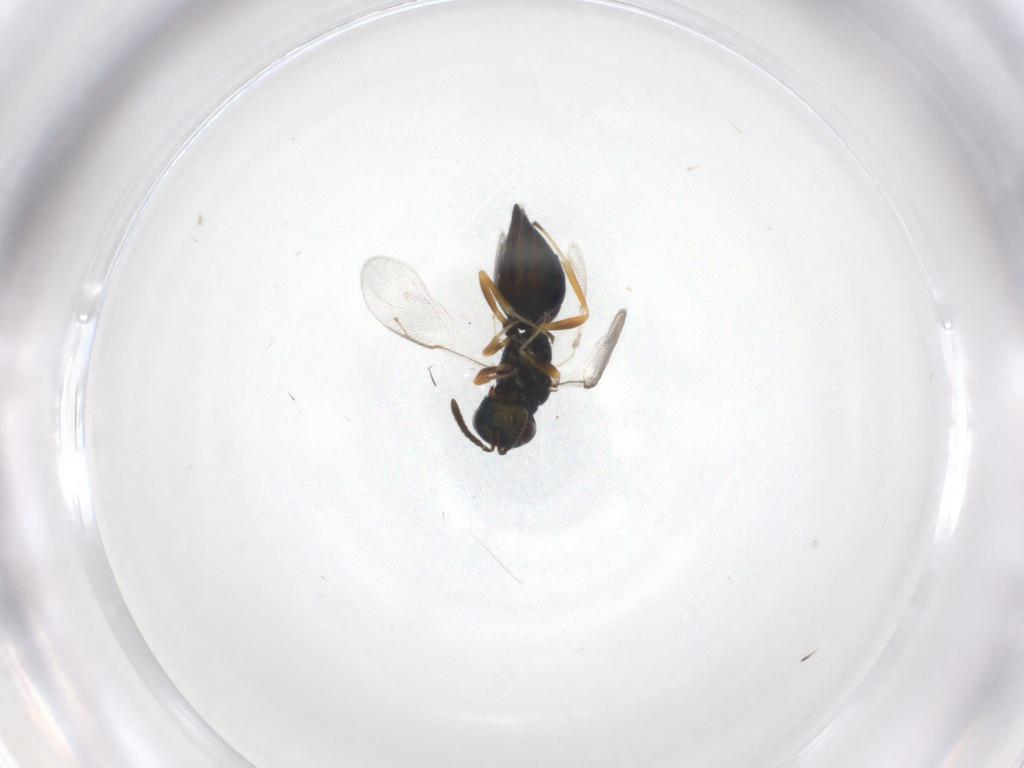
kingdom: Animalia
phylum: Arthropoda
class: Insecta
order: Hymenoptera
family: Pteromalidae
